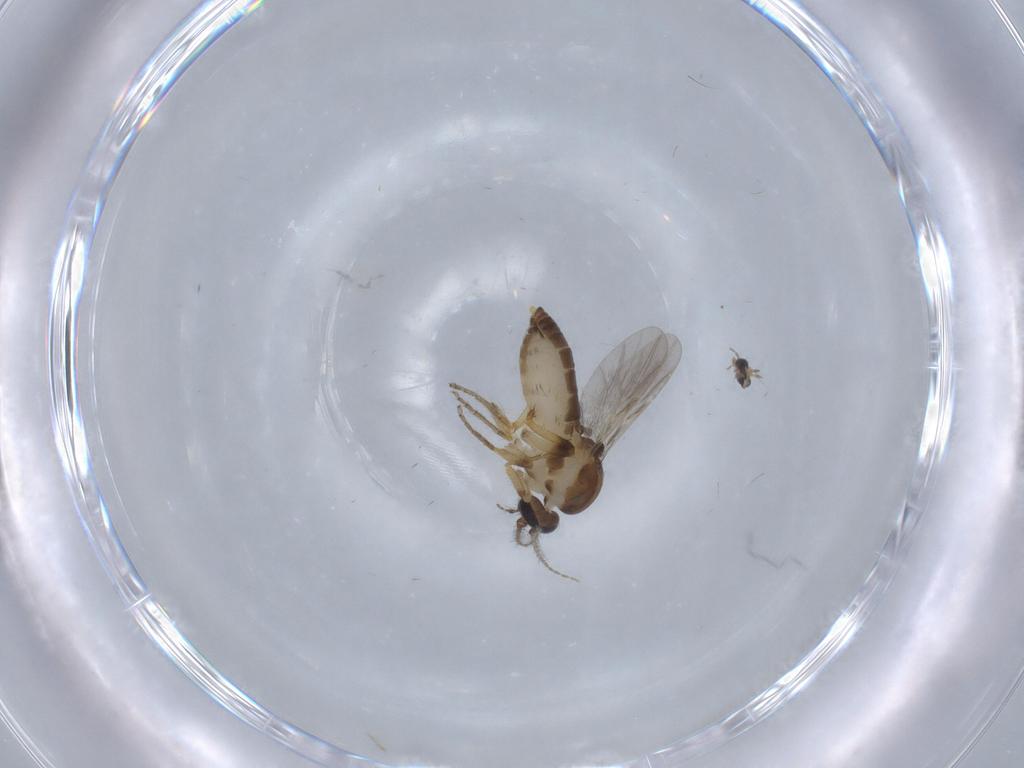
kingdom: Animalia
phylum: Arthropoda
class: Insecta
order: Diptera
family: Ceratopogonidae
